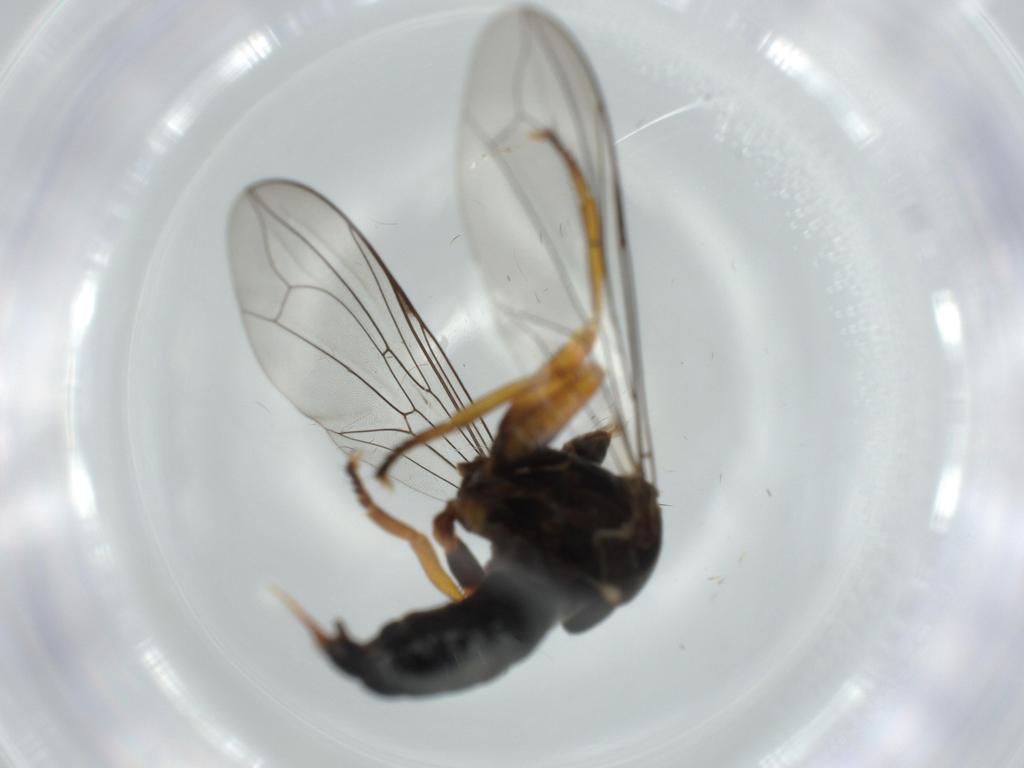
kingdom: Animalia
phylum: Arthropoda
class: Insecta
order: Diptera
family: Pipunculidae
